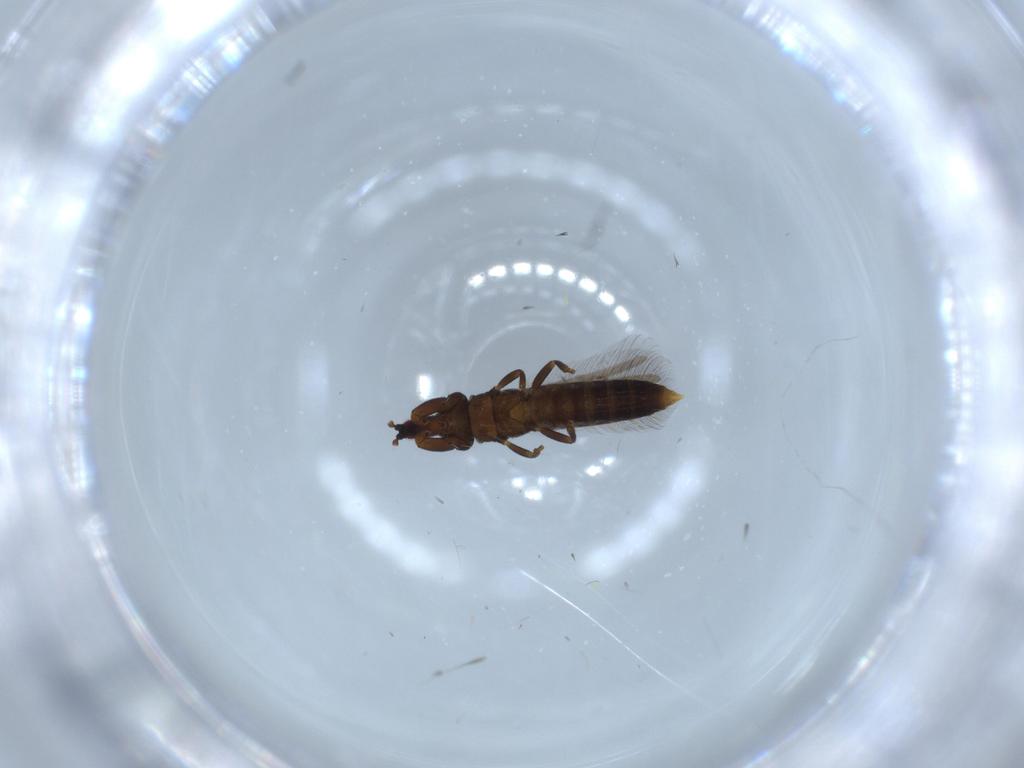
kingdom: Animalia
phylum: Arthropoda
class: Insecta
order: Thysanoptera
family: Phlaeothripidae
